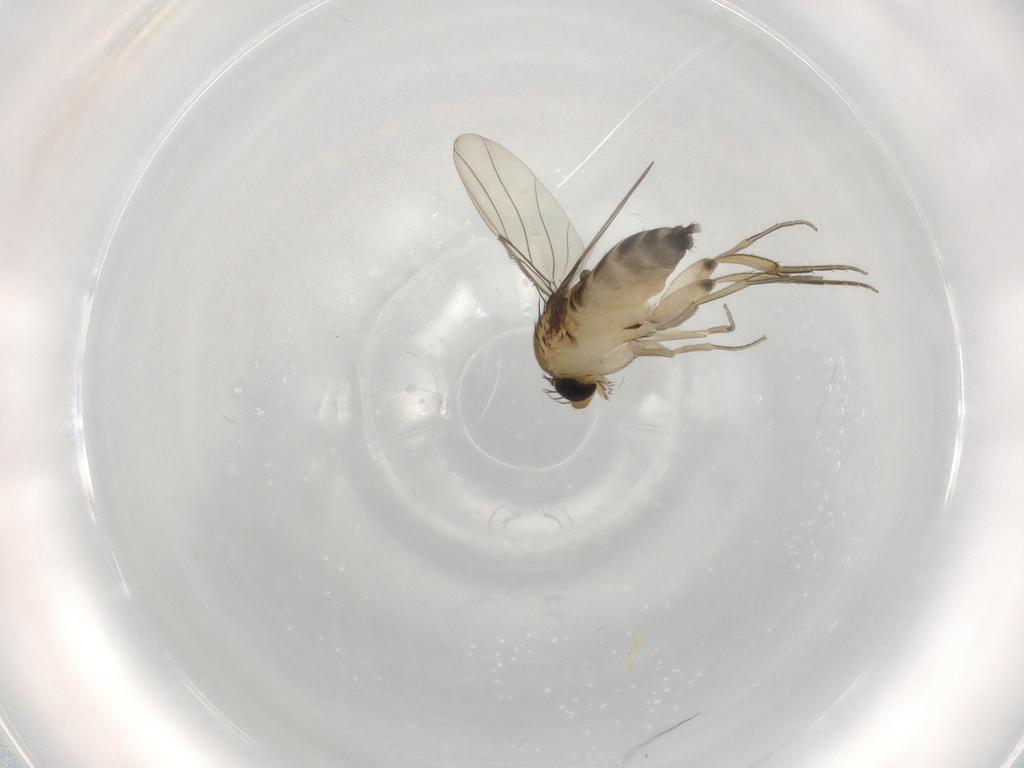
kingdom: Animalia
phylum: Arthropoda
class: Insecta
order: Diptera
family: Phoridae
